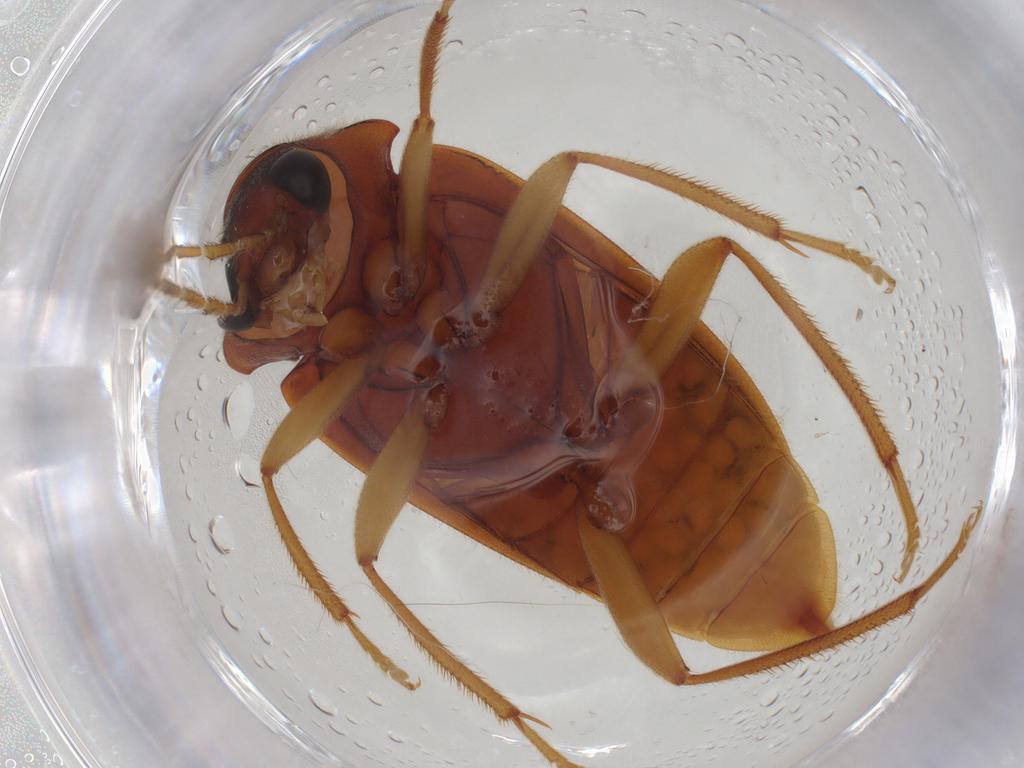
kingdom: Animalia
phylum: Arthropoda
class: Insecta
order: Coleoptera
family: Ptilodactylidae
